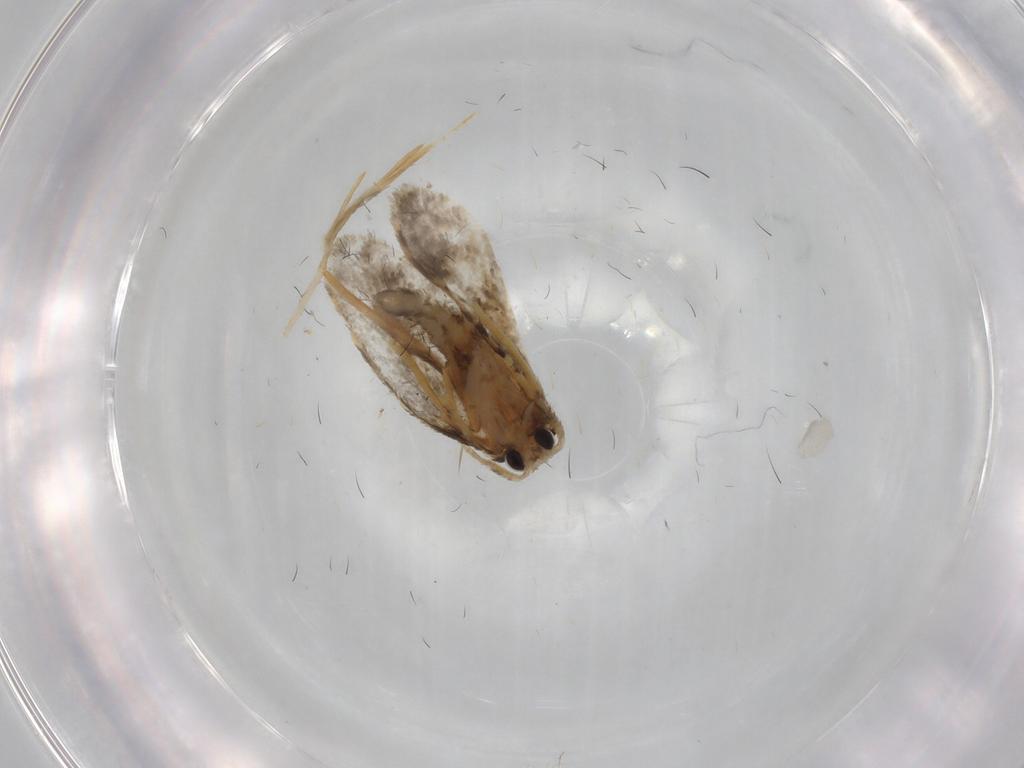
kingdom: Animalia
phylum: Arthropoda
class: Insecta
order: Lepidoptera
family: Psychidae
